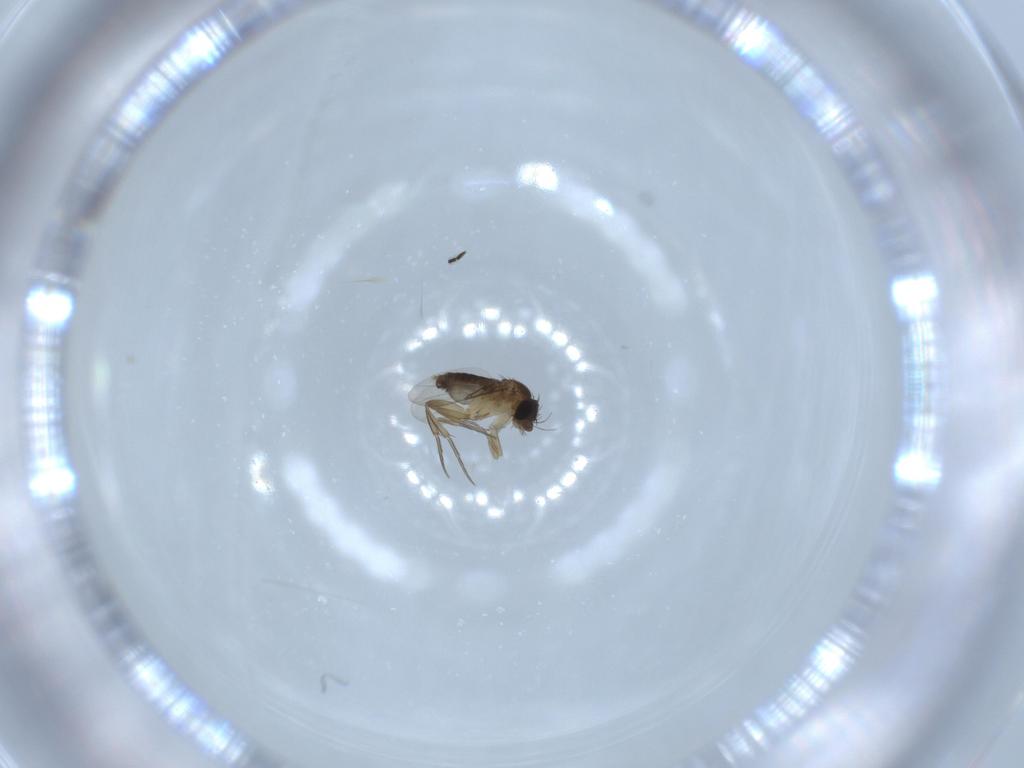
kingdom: Animalia
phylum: Arthropoda
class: Insecta
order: Diptera
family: Phoridae
